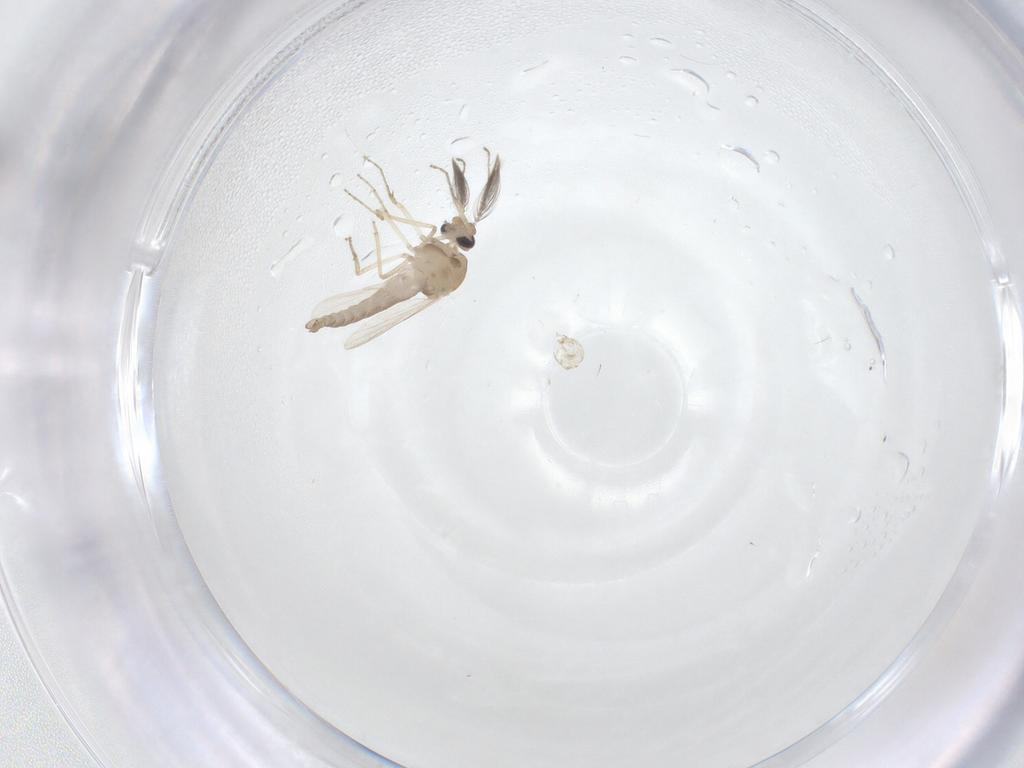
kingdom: Animalia
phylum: Arthropoda
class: Insecta
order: Diptera
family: Ceratopogonidae
